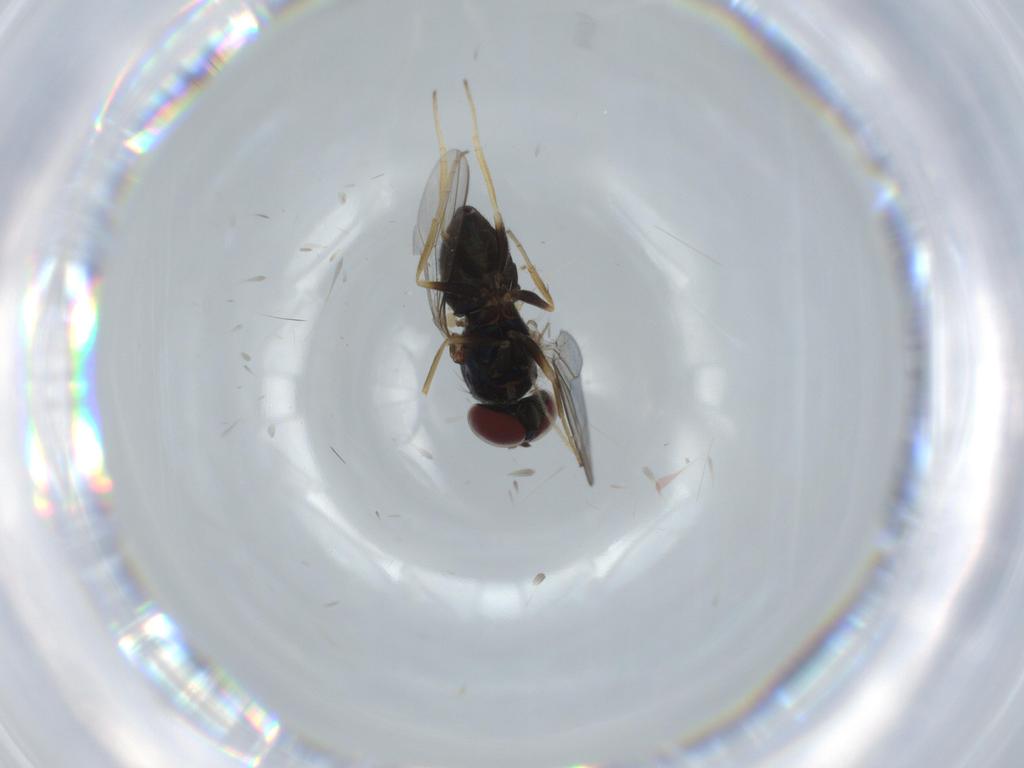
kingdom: Animalia
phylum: Arthropoda
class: Insecta
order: Diptera
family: Dolichopodidae
